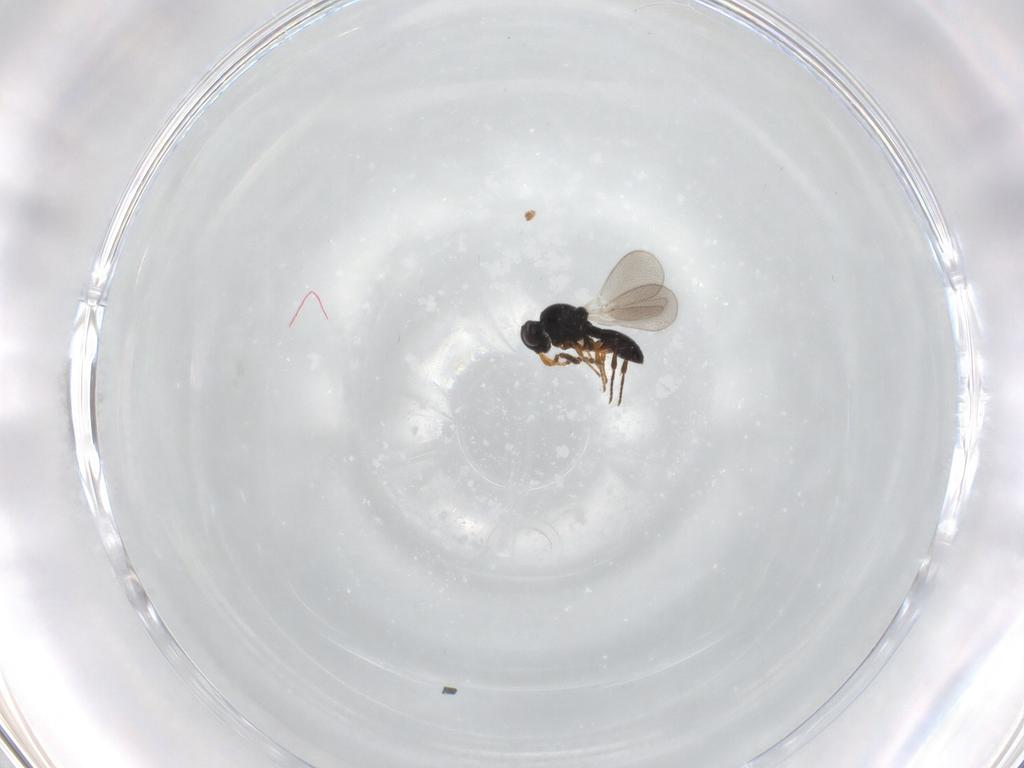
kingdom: Animalia
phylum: Arthropoda
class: Insecta
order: Hymenoptera
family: Platygastridae
